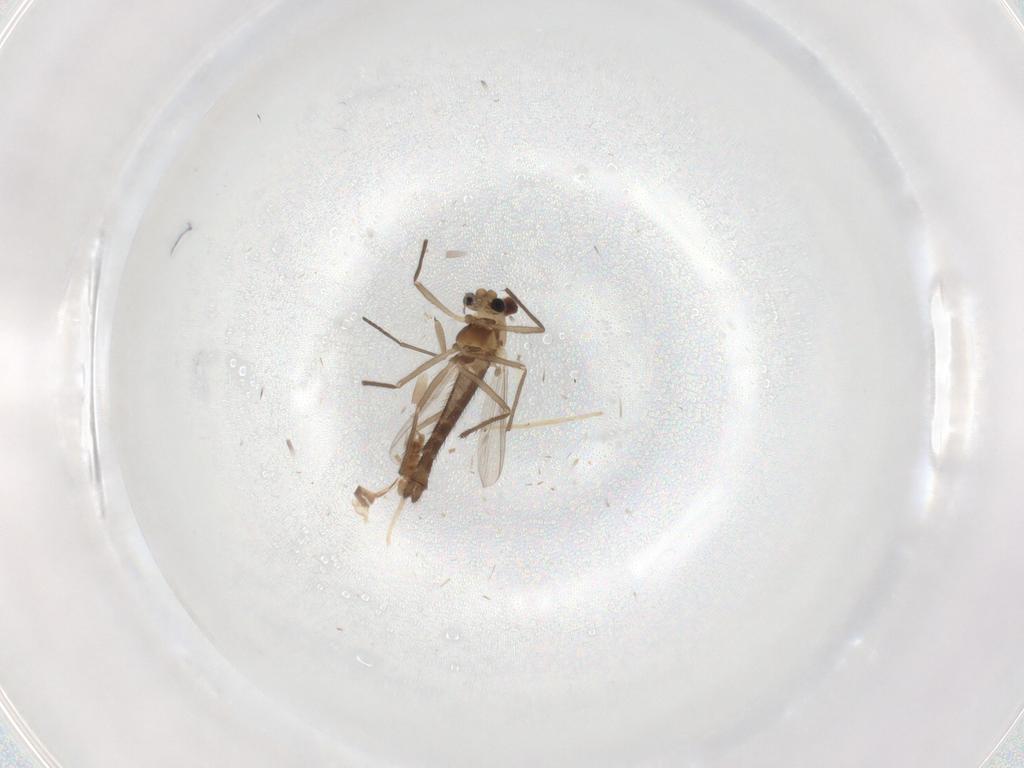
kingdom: Animalia
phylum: Arthropoda
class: Insecta
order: Diptera
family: Chironomidae
